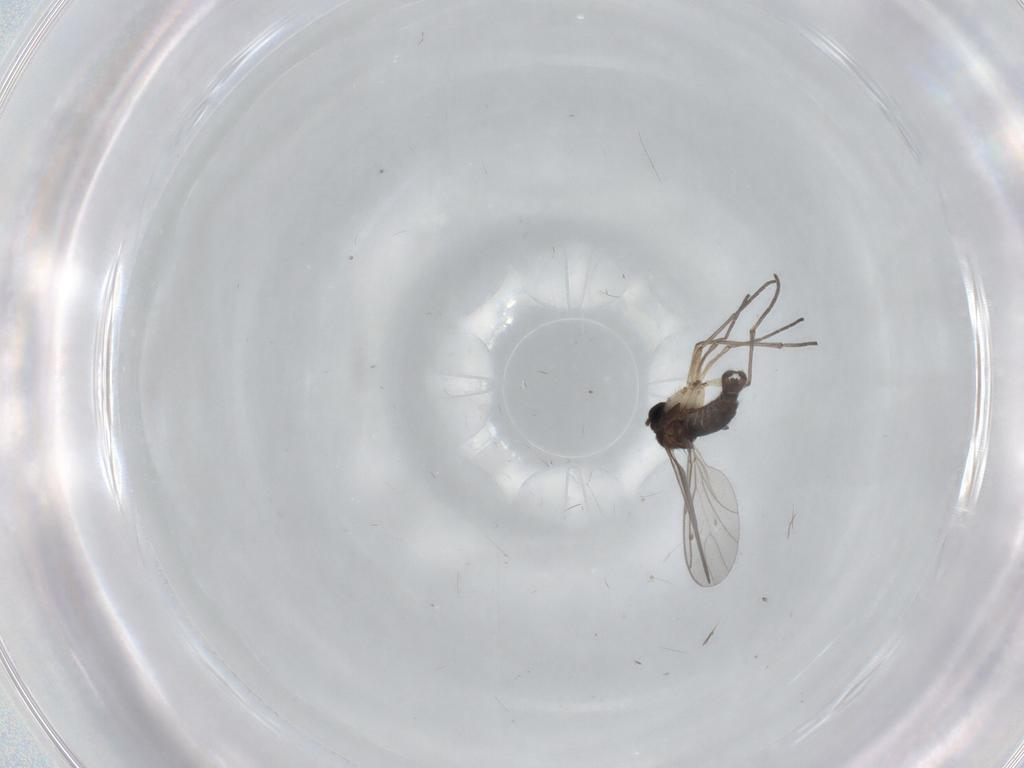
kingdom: Animalia
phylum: Arthropoda
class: Insecta
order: Diptera
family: Sciaridae
